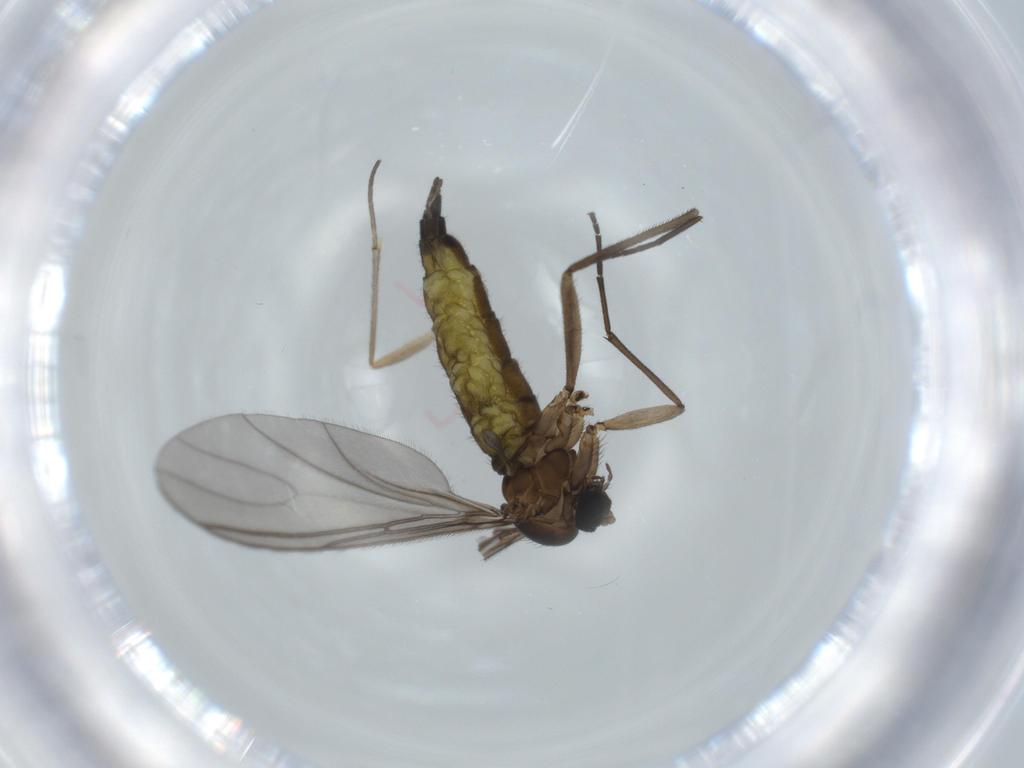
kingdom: Animalia
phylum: Arthropoda
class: Insecta
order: Diptera
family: Sciaridae
